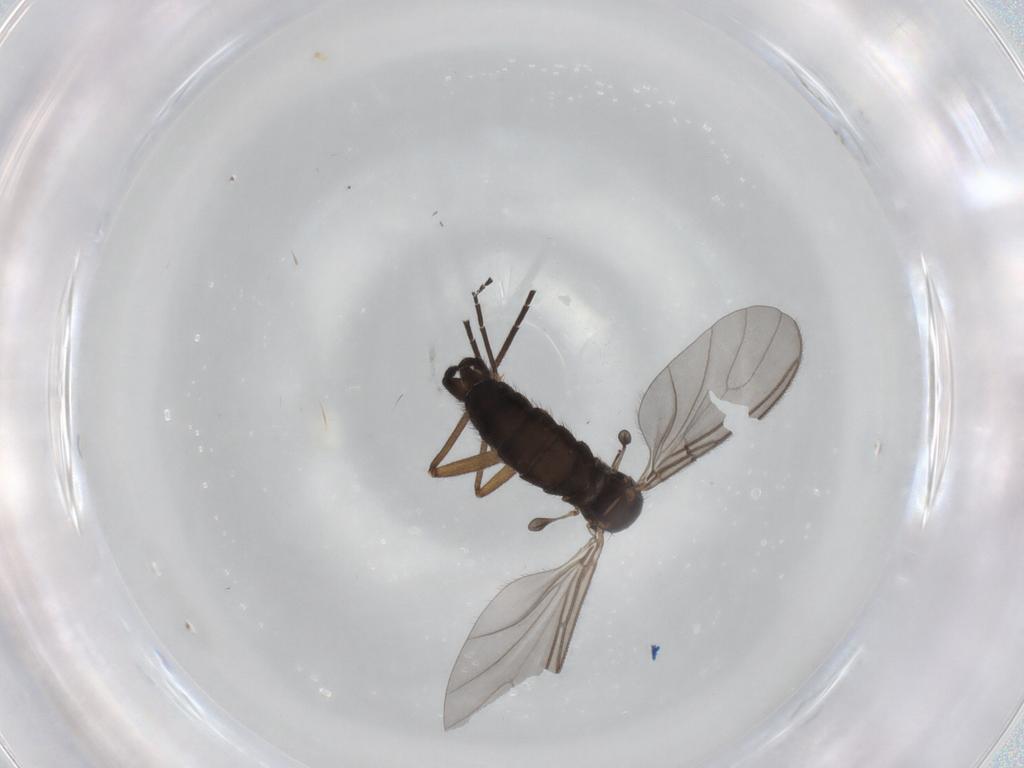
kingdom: Animalia
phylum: Arthropoda
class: Insecta
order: Diptera
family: Sciaridae
